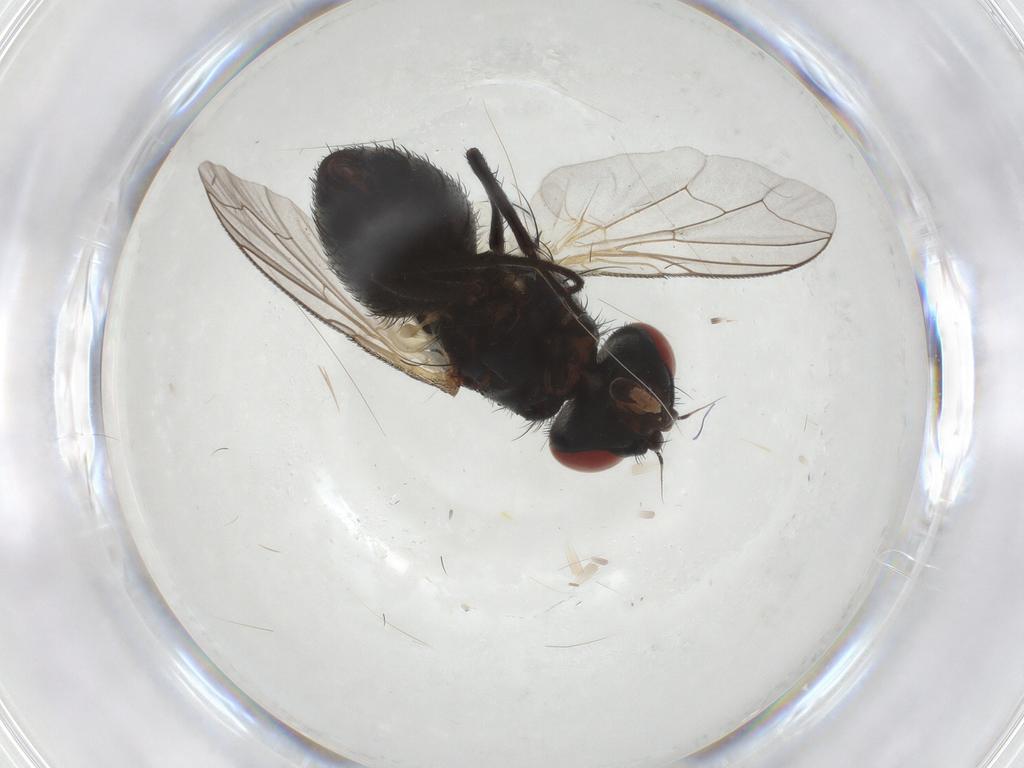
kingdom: Animalia
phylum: Arthropoda
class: Insecta
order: Diptera
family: Sarcophagidae
